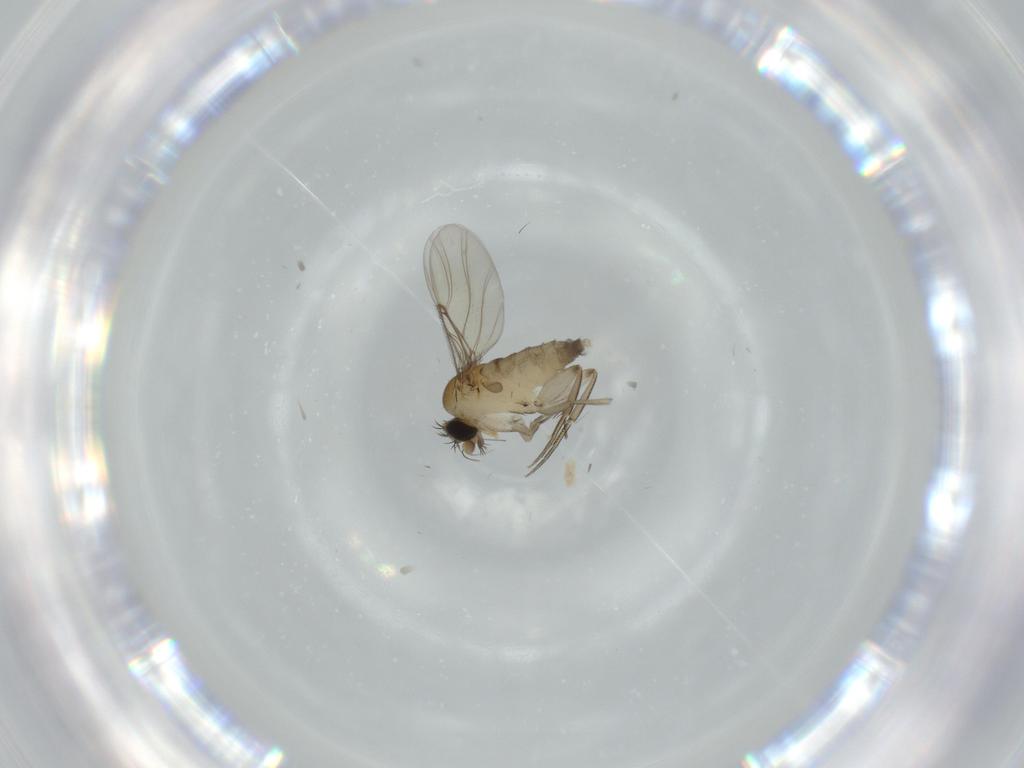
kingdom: Animalia
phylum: Arthropoda
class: Insecta
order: Diptera
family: Phoridae
